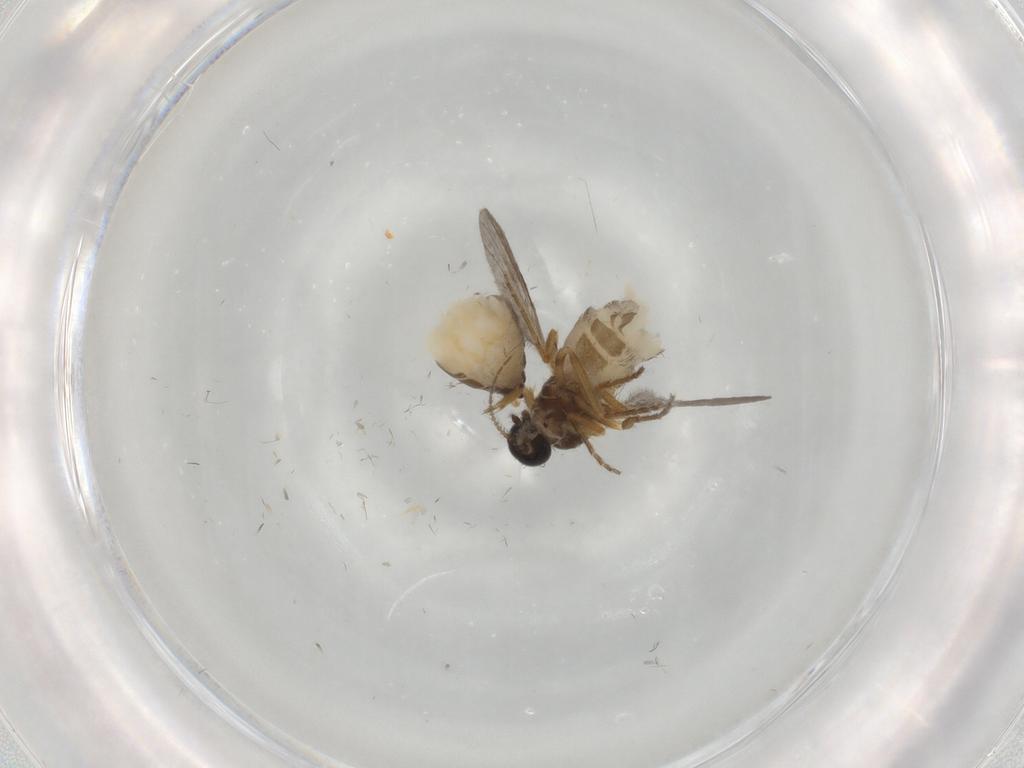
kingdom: Animalia
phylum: Arthropoda
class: Insecta
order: Diptera
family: Ceratopogonidae
